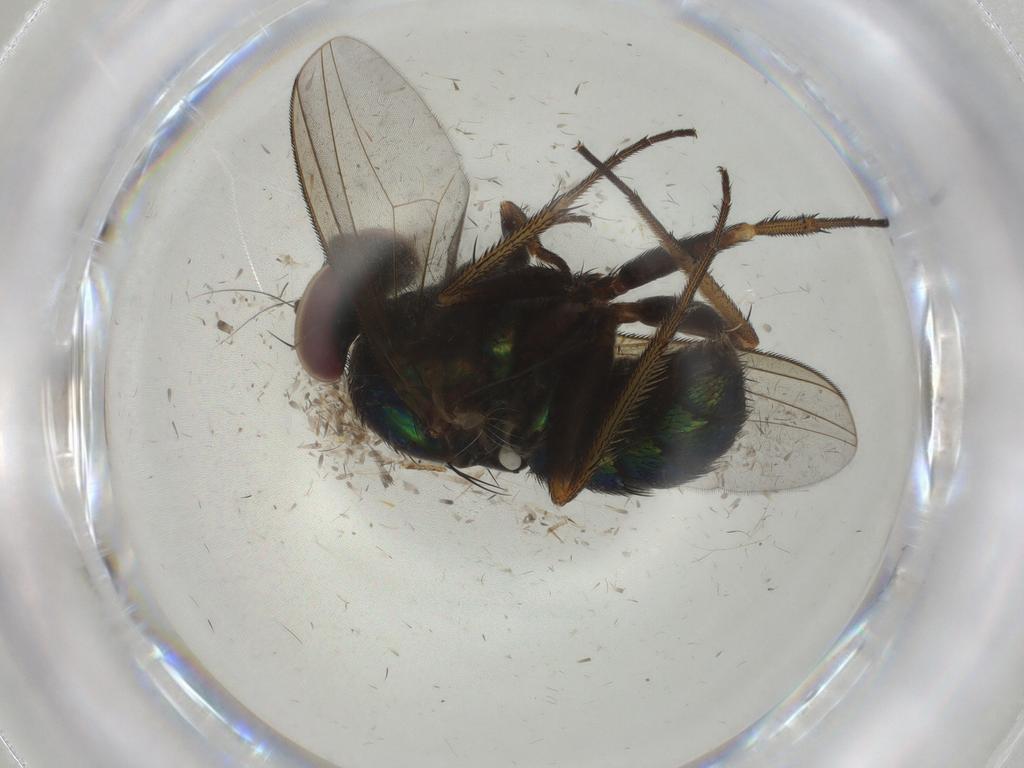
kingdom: Animalia
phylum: Arthropoda
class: Insecta
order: Diptera
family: Dolichopodidae
